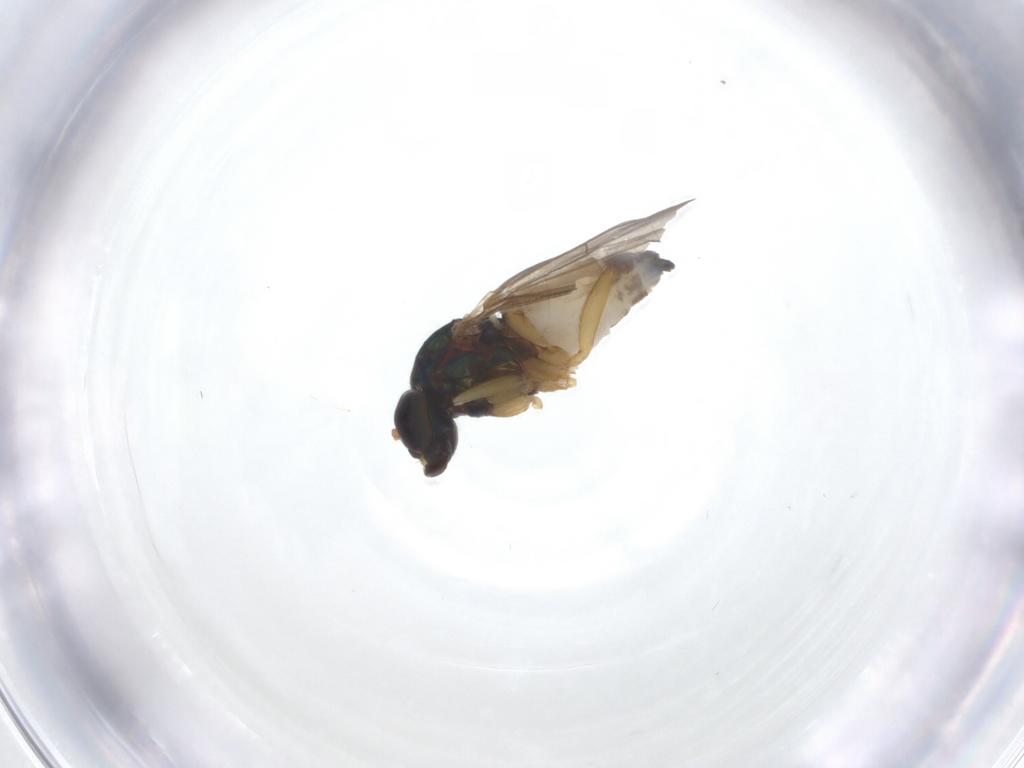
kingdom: Animalia
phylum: Arthropoda
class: Insecta
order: Diptera
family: Dolichopodidae
